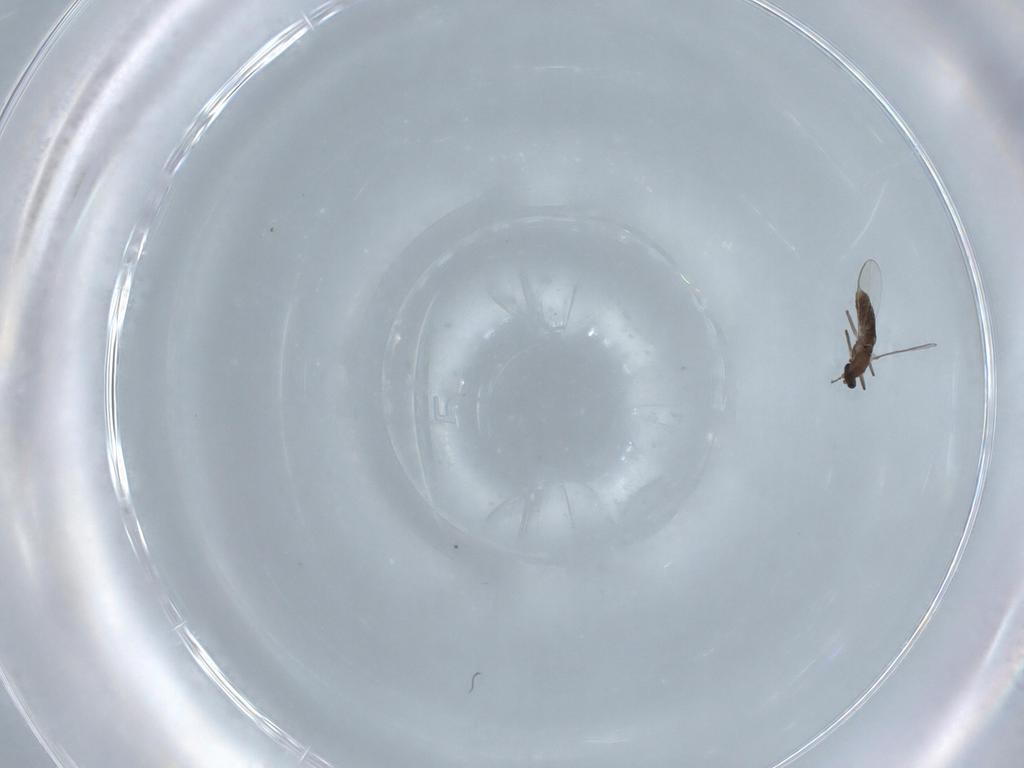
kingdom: Animalia
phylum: Arthropoda
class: Insecta
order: Diptera
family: Chironomidae
